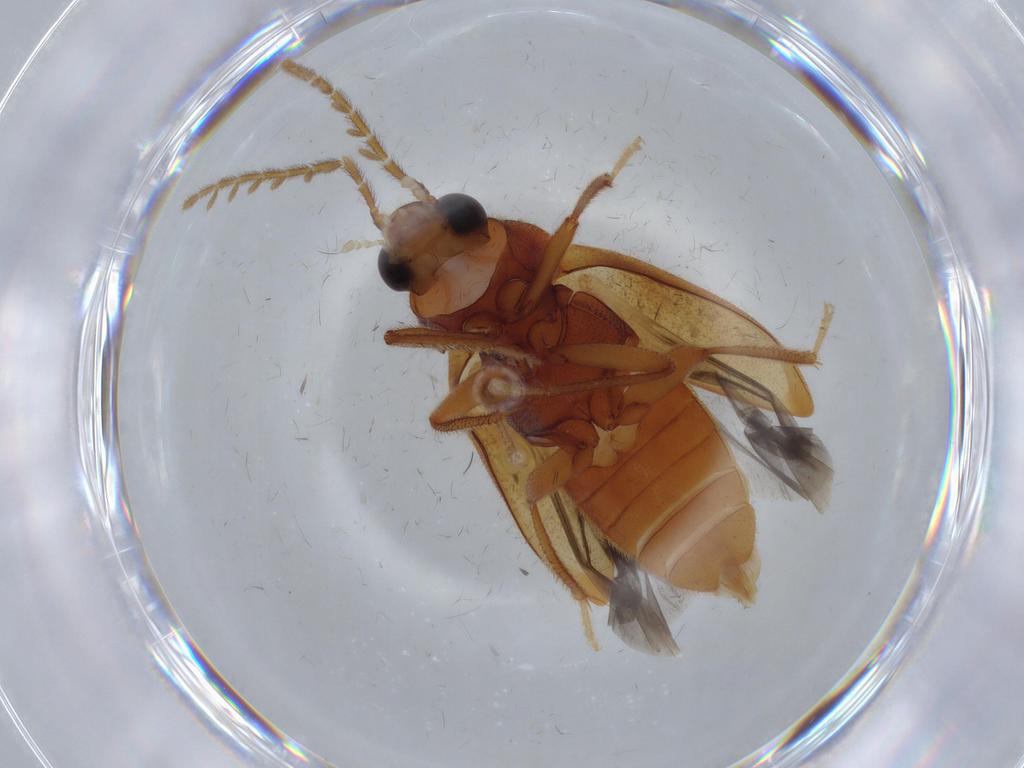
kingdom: Animalia
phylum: Arthropoda
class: Insecta
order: Coleoptera
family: Ptilodactylidae
